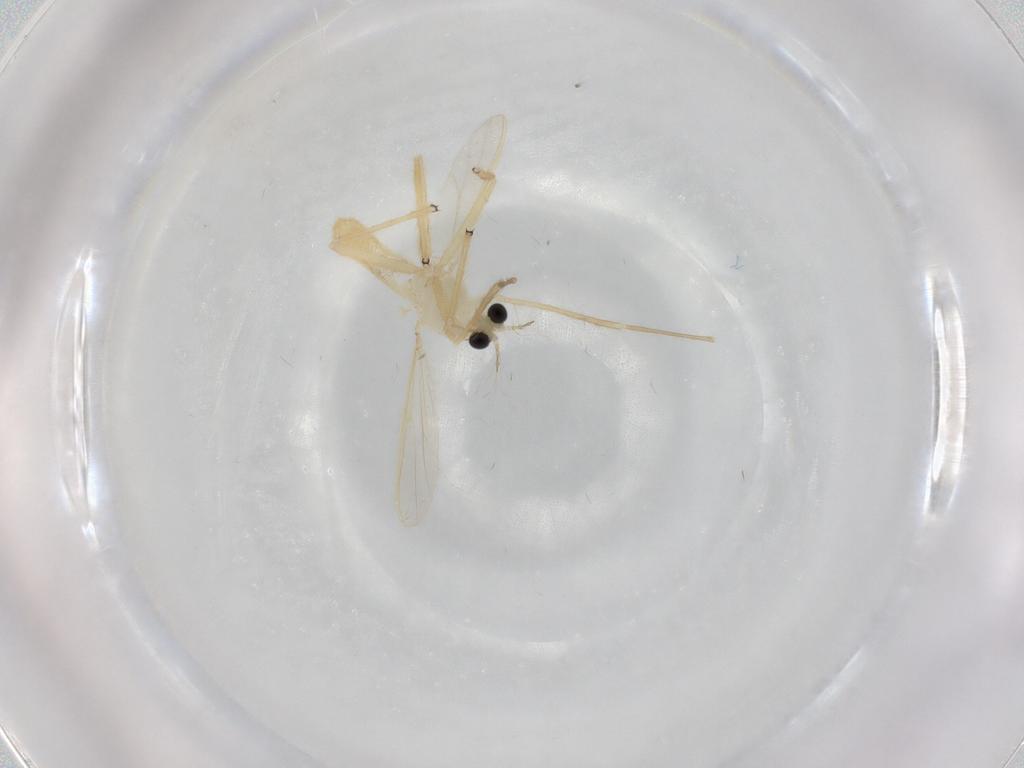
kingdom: Animalia
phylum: Arthropoda
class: Insecta
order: Diptera
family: Chironomidae
